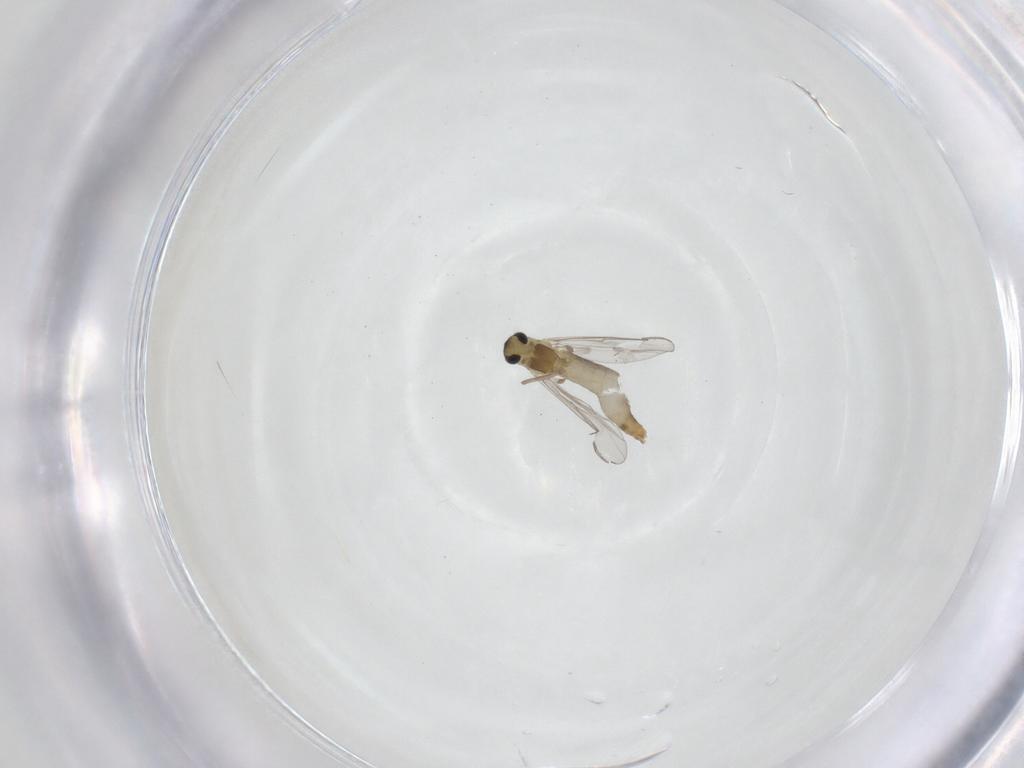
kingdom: Animalia
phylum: Arthropoda
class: Insecta
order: Diptera
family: Chironomidae
